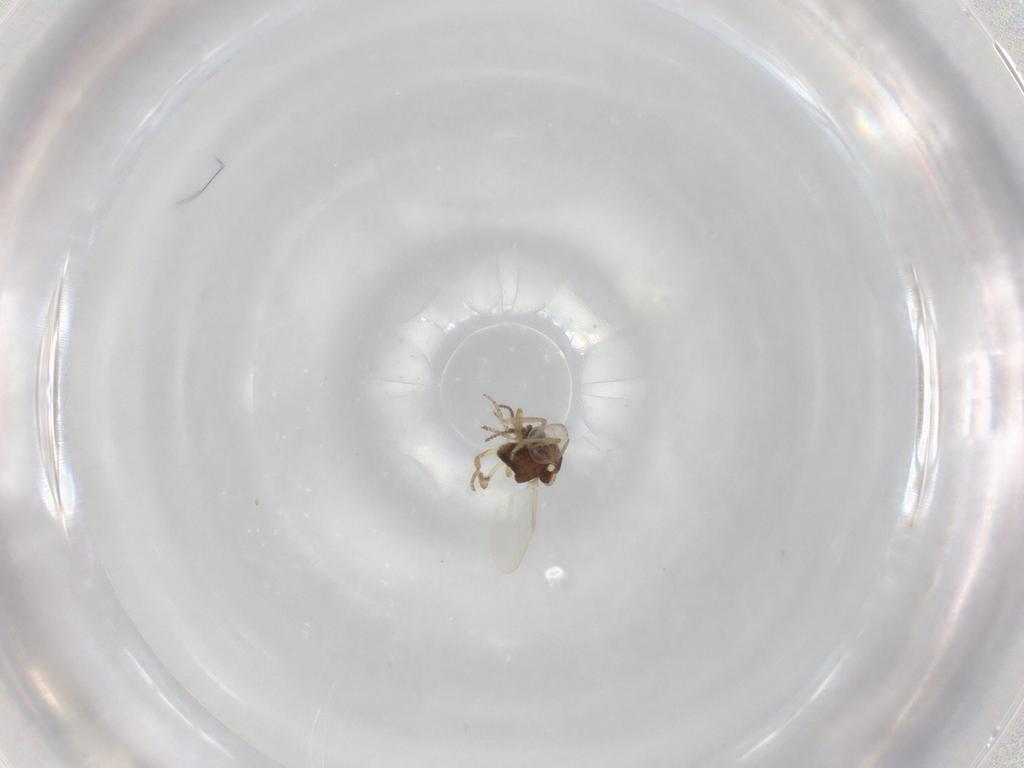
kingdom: Animalia
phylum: Arthropoda
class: Insecta
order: Diptera
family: Ceratopogonidae
